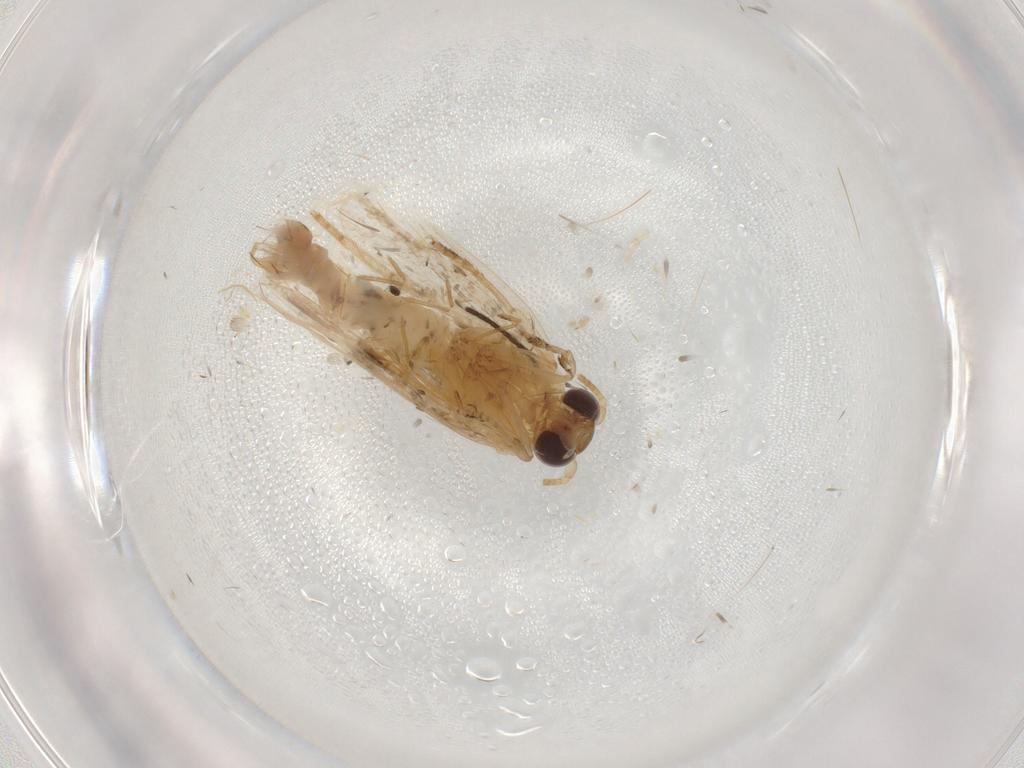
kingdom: Animalia
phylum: Arthropoda
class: Insecta
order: Lepidoptera
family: Tortricidae
